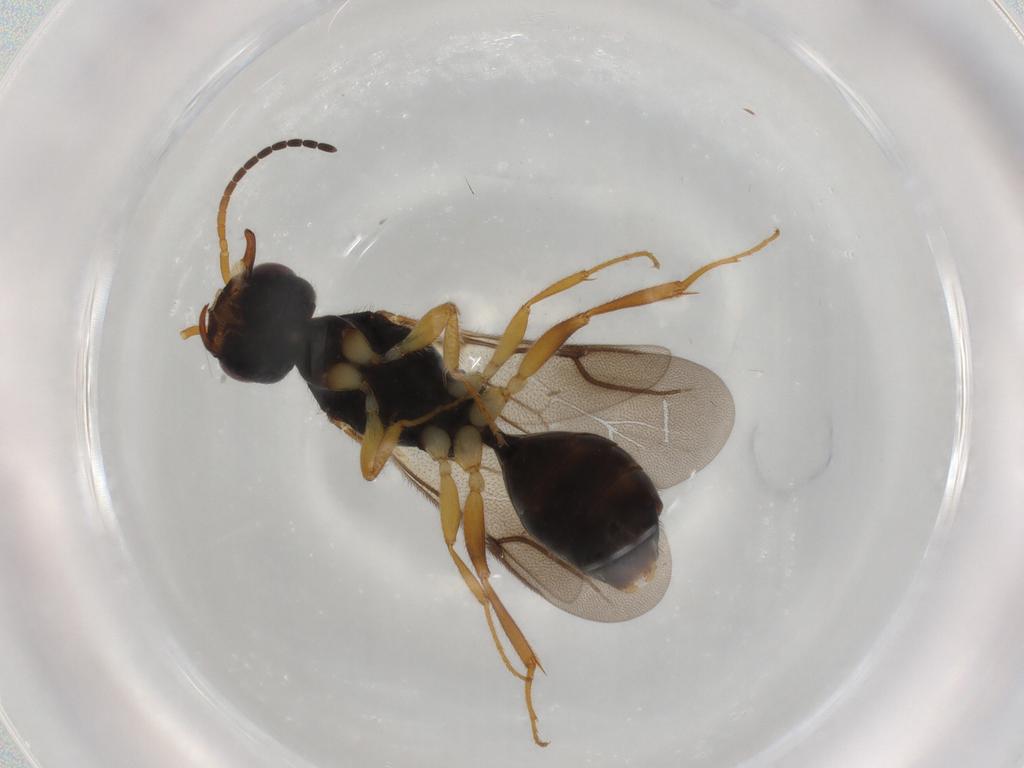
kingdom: Animalia
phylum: Arthropoda
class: Insecta
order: Hymenoptera
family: Bethylidae
